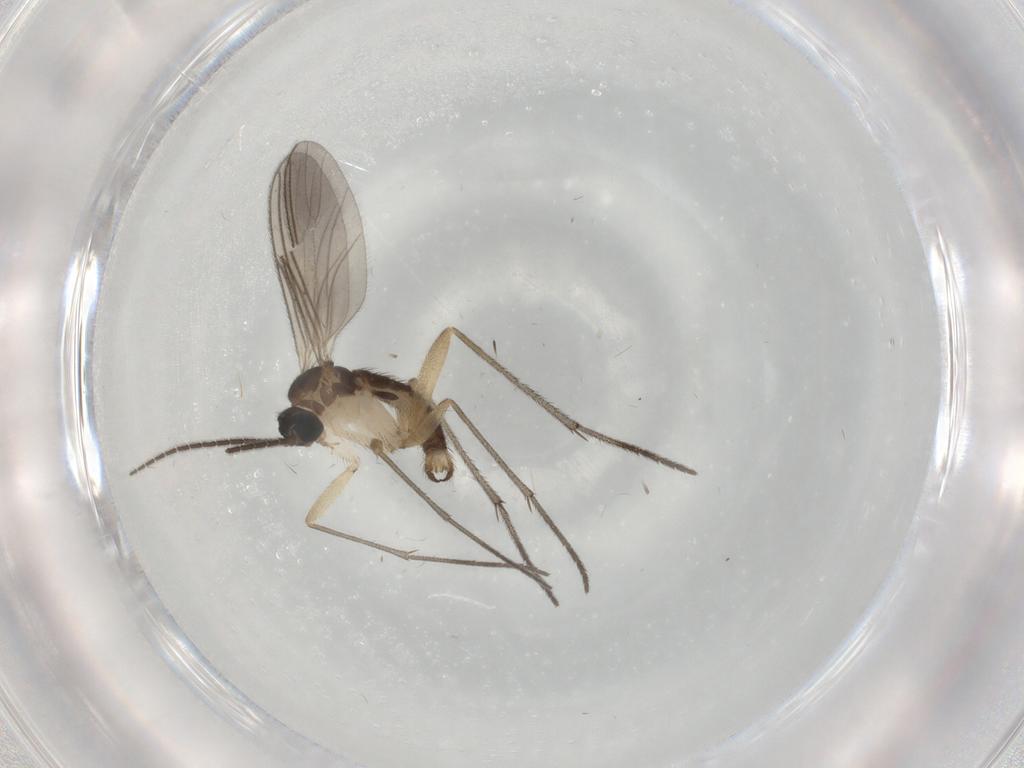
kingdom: Animalia
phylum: Arthropoda
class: Insecta
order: Diptera
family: Sciaridae
